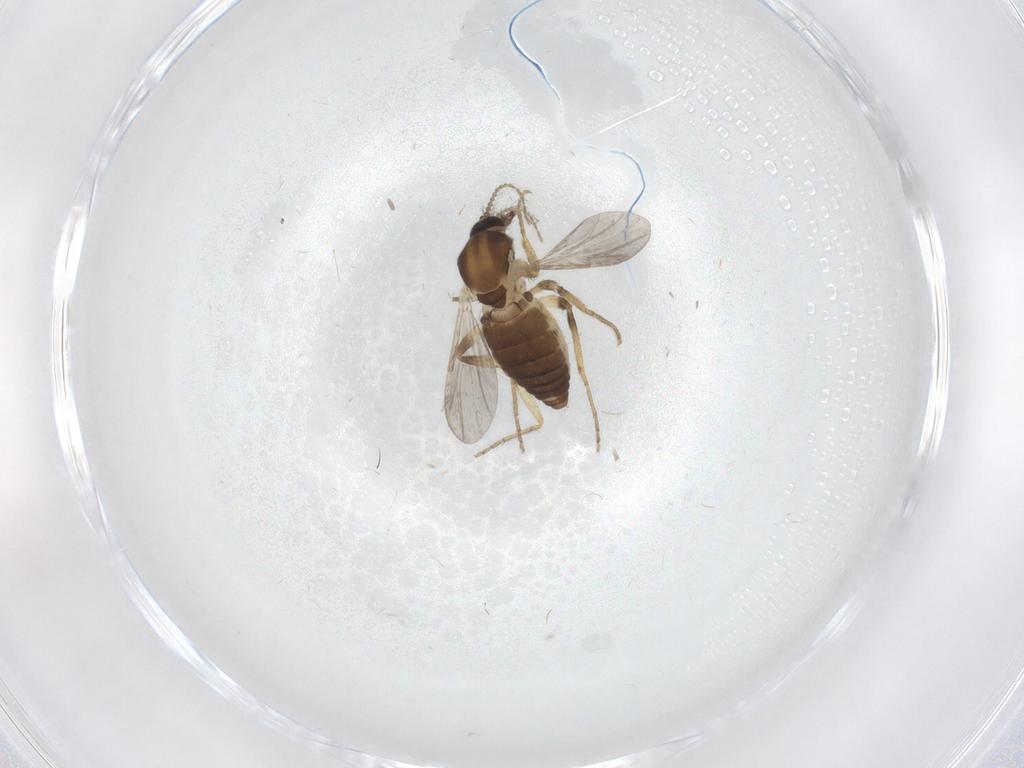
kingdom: Animalia
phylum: Arthropoda
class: Insecta
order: Diptera
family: Ceratopogonidae
